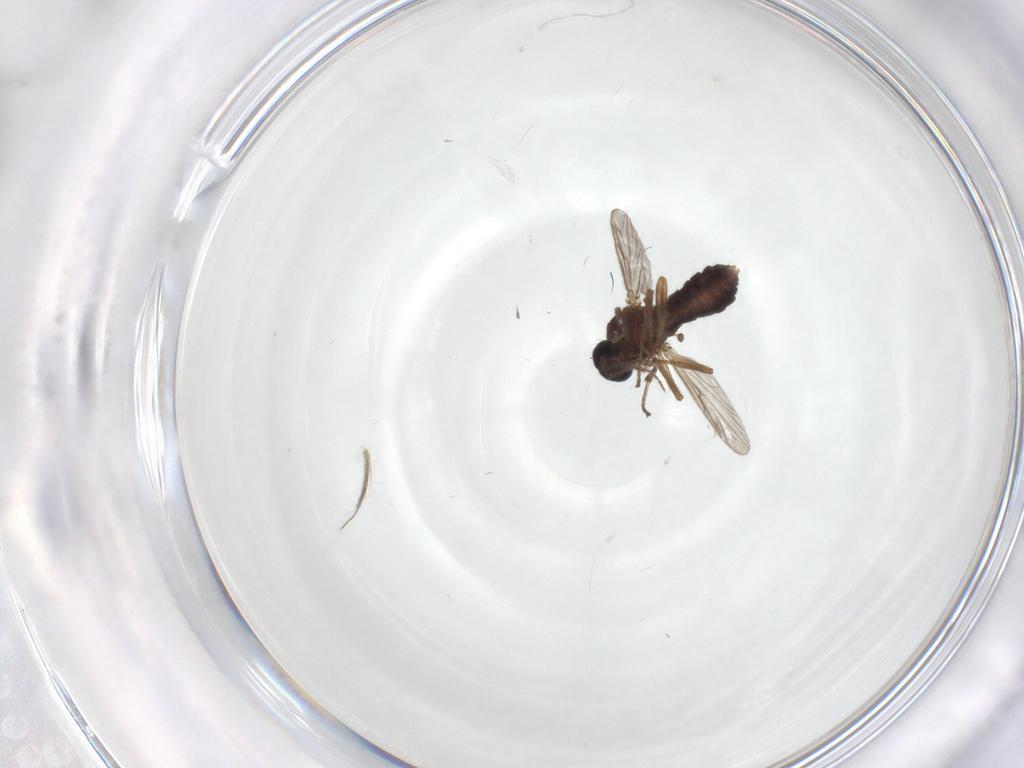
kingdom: Animalia
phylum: Arthropoda
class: Insecta
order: Diptera
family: Ceratopogonidae
